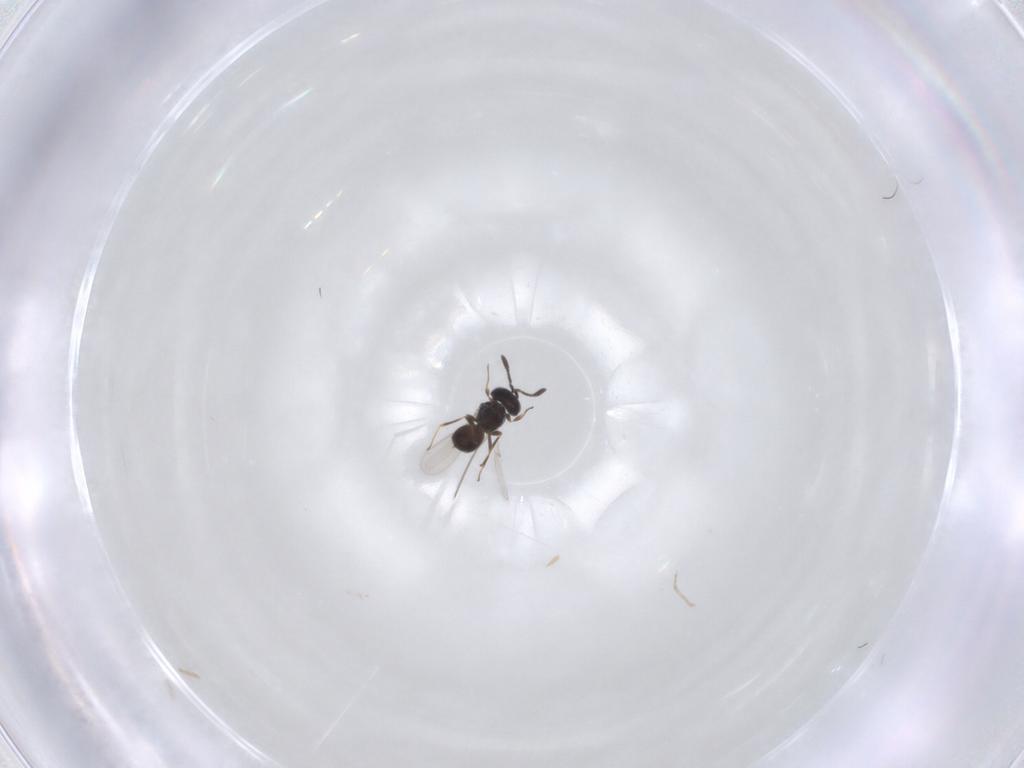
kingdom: Animalia
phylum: Arthropoda
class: Insecta
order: Hymenoptera
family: Scelionidae
